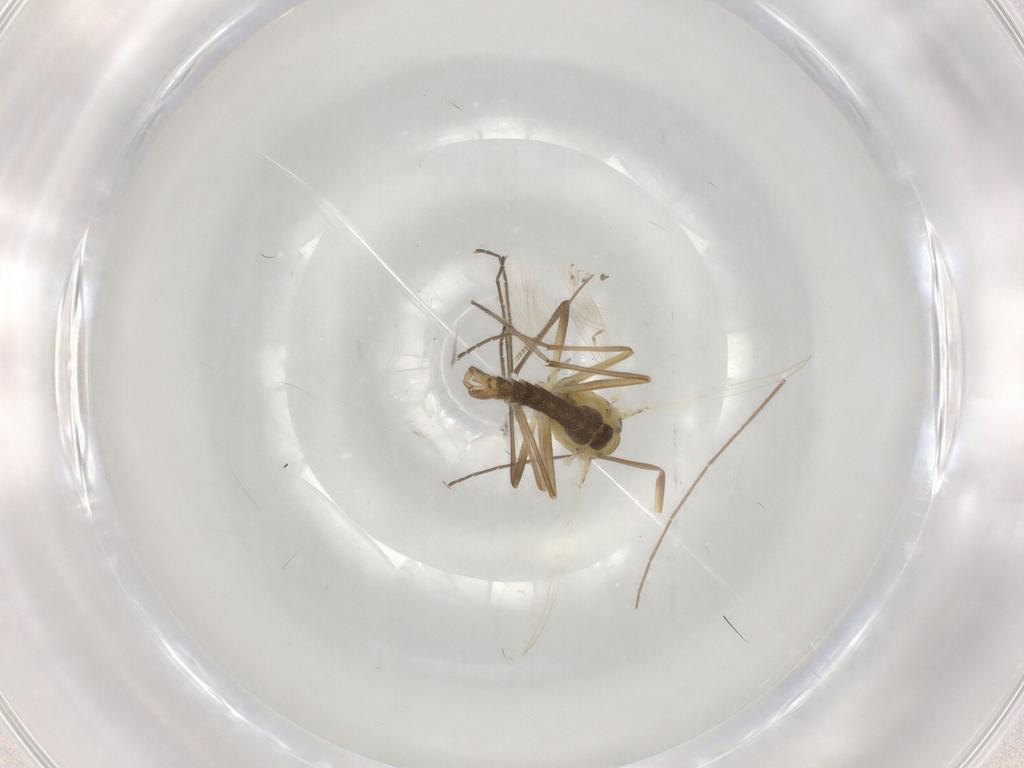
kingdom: Animalia
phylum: Arthropoda
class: Insecta
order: Diptera
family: Chironomidae
